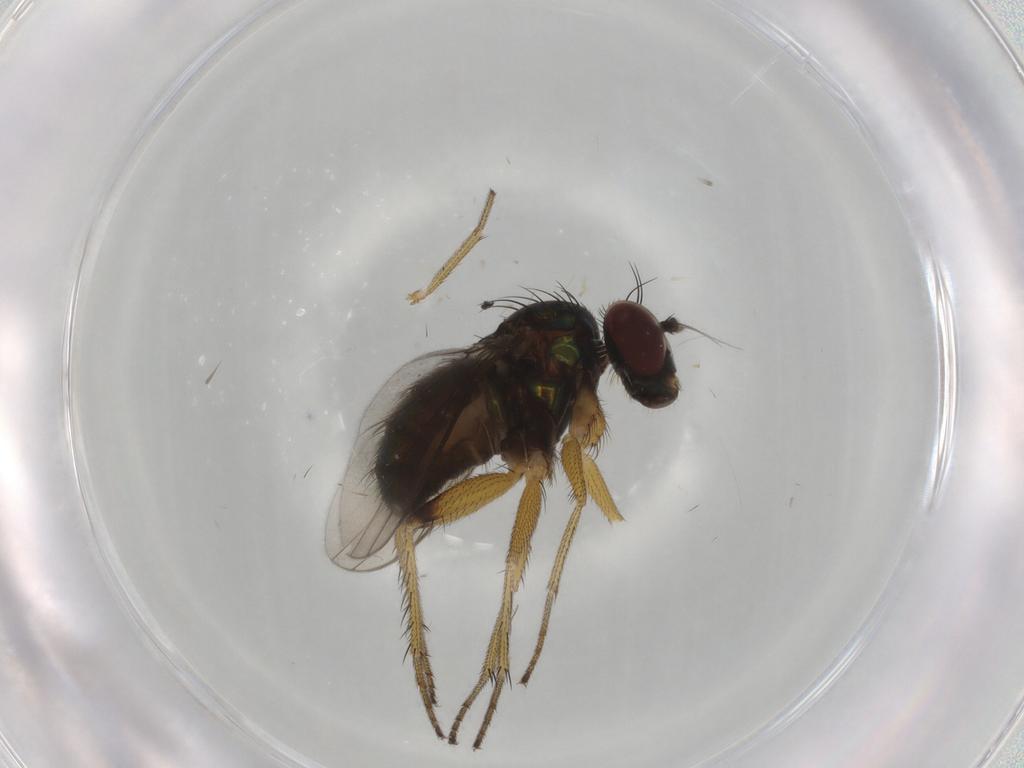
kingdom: Animalia
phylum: Arthropoda
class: Insecta
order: Diptera
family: Dolichopodidae
